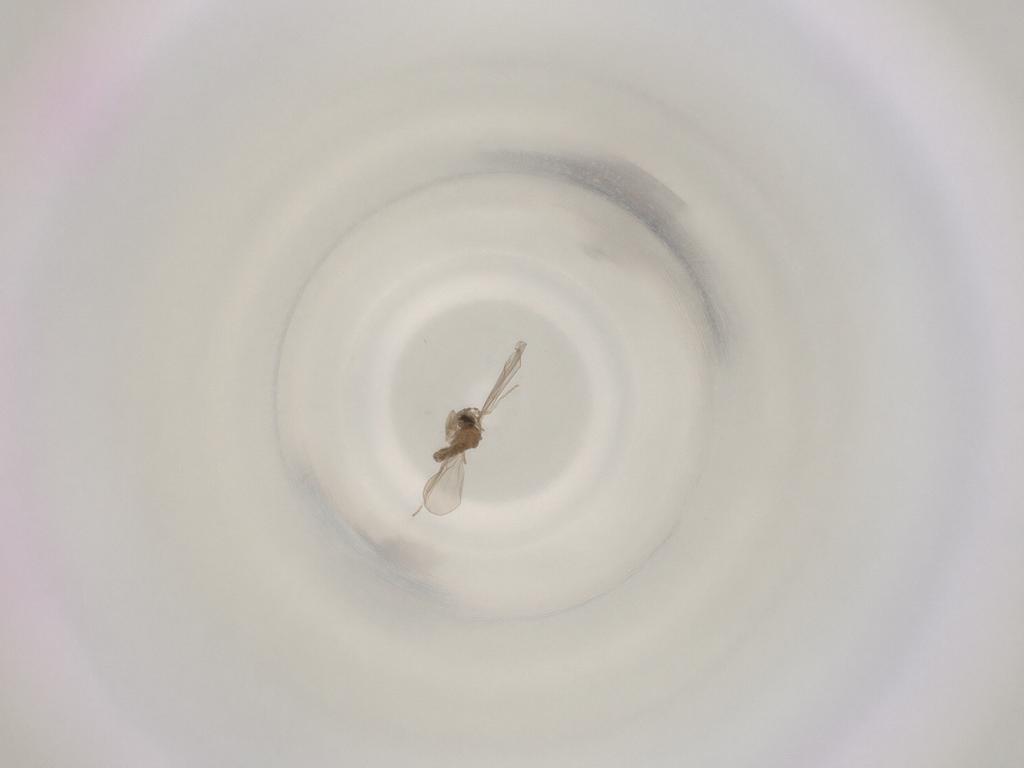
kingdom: Animalia
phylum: Arthropoda
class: Insecta
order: Diptera
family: Cecidomyiidae
